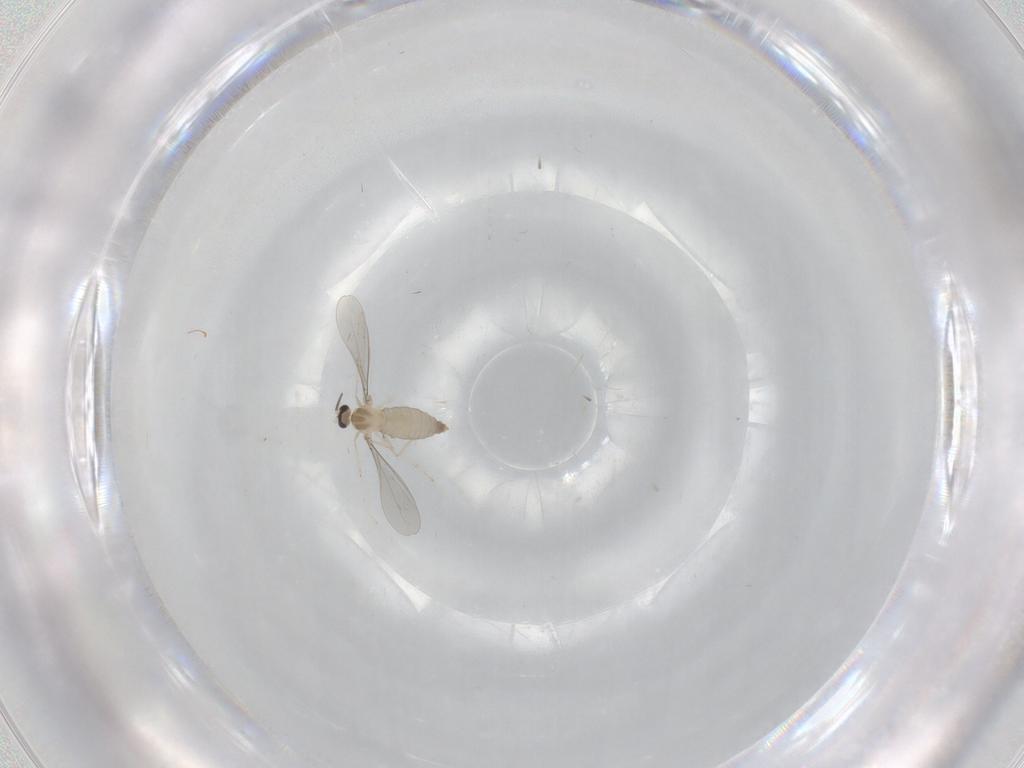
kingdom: Animalia
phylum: Arthropoda
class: Insecta
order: Diptera
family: Cecidomyiidae
